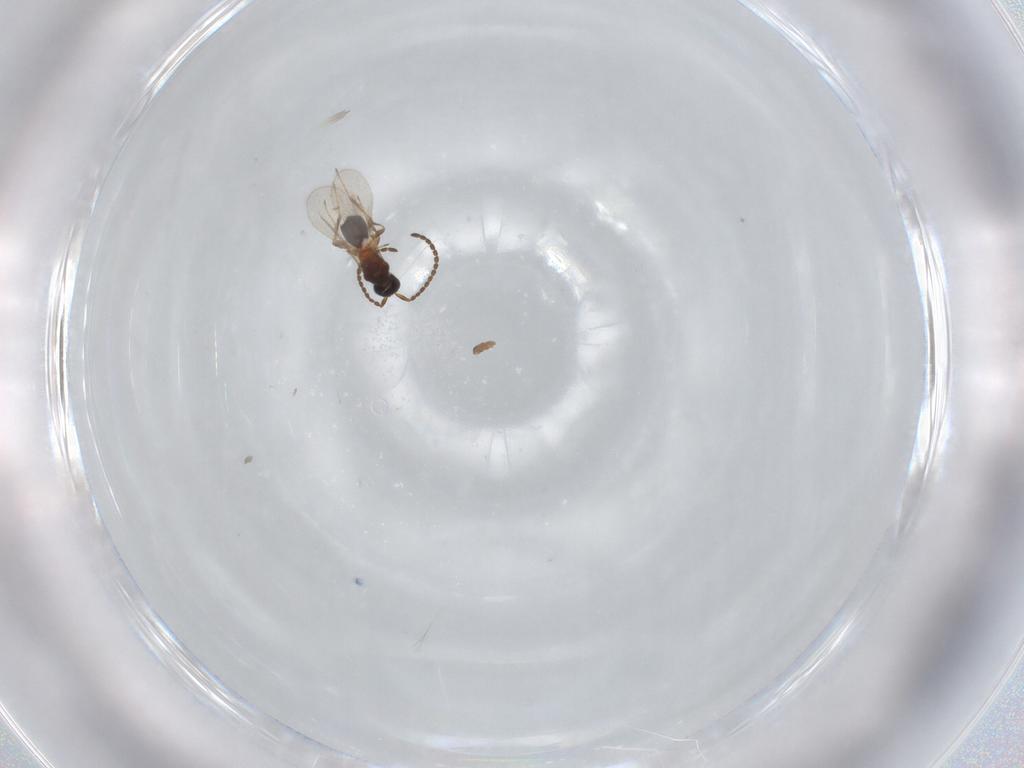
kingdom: Animalia
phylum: Arthropoda
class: Insecta
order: Hymenoptera
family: Diapriidae
